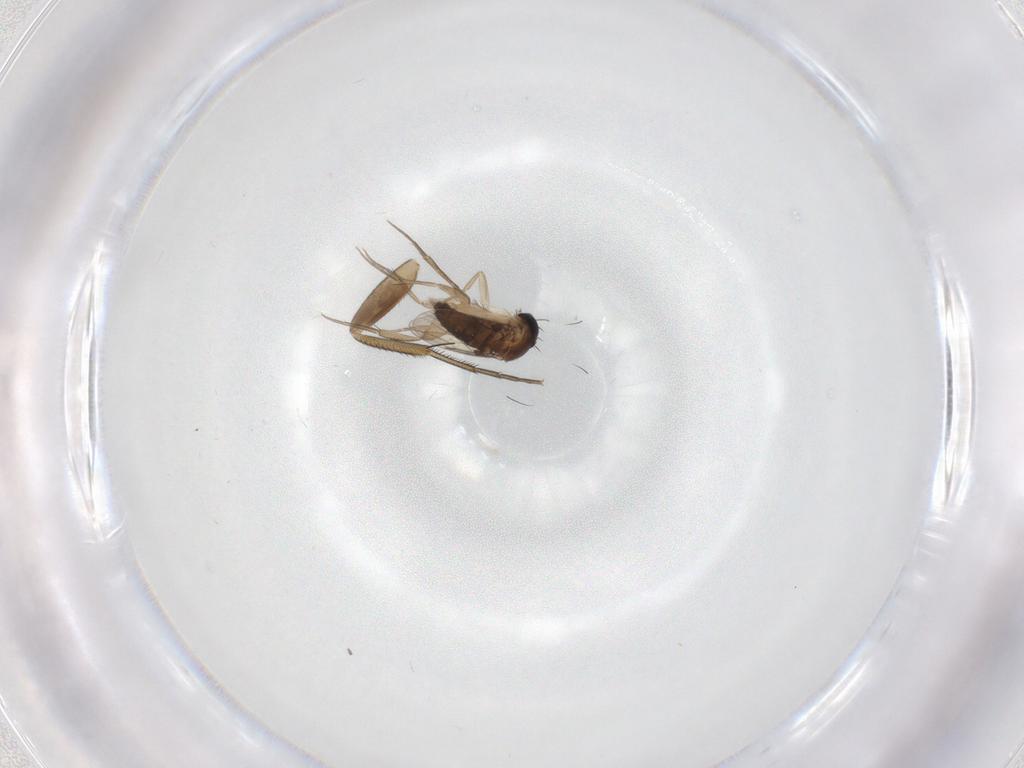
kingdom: Animalia
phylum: Arthropoda
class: Insecta
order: Diptera
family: Phoridae
